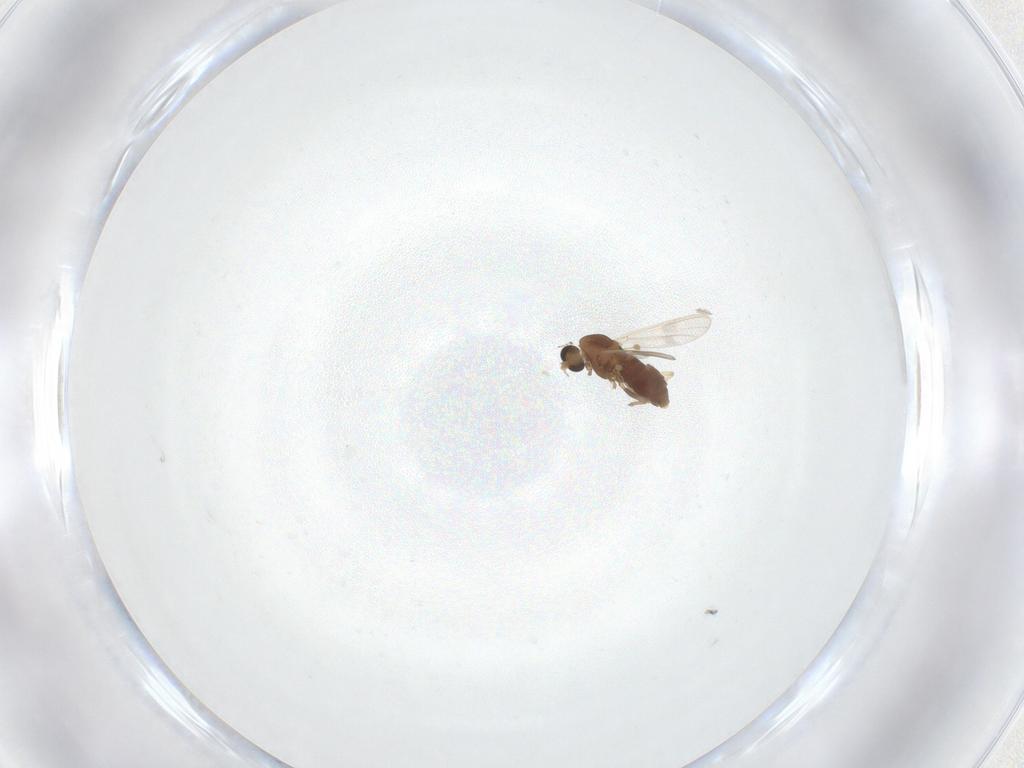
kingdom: Animalia
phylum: Arthropoda
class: Insecta
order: Diptera
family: Chironomidae
